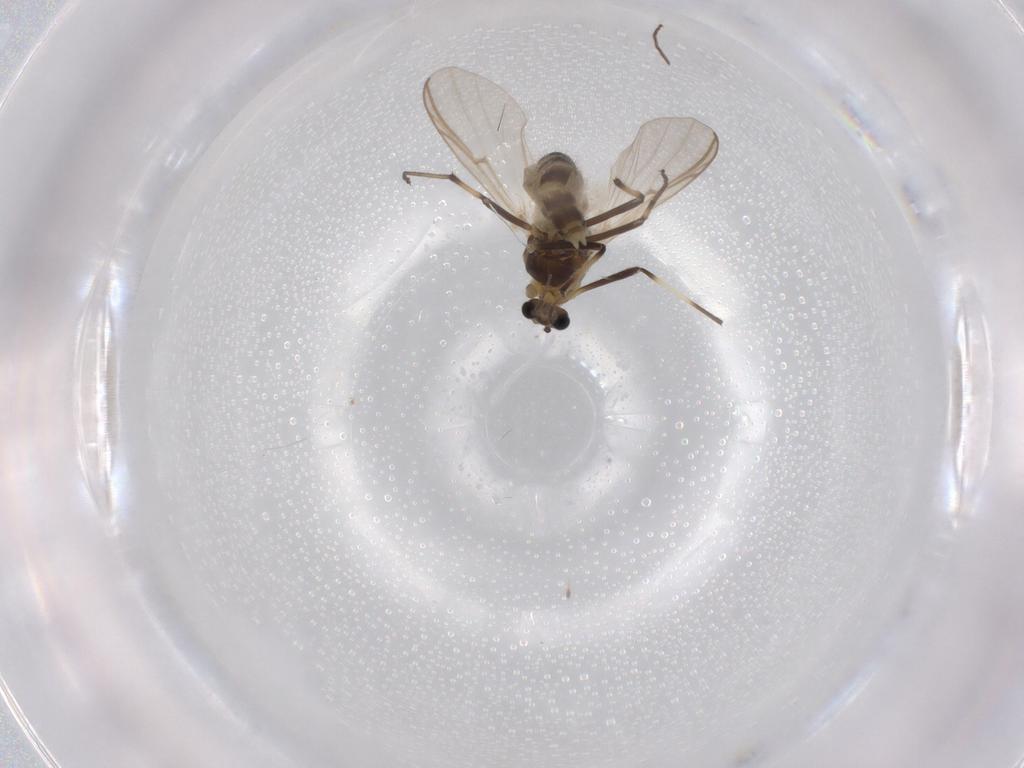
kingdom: Animalia
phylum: Arthropoda
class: Insecta
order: Diptera
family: Chironomidae
